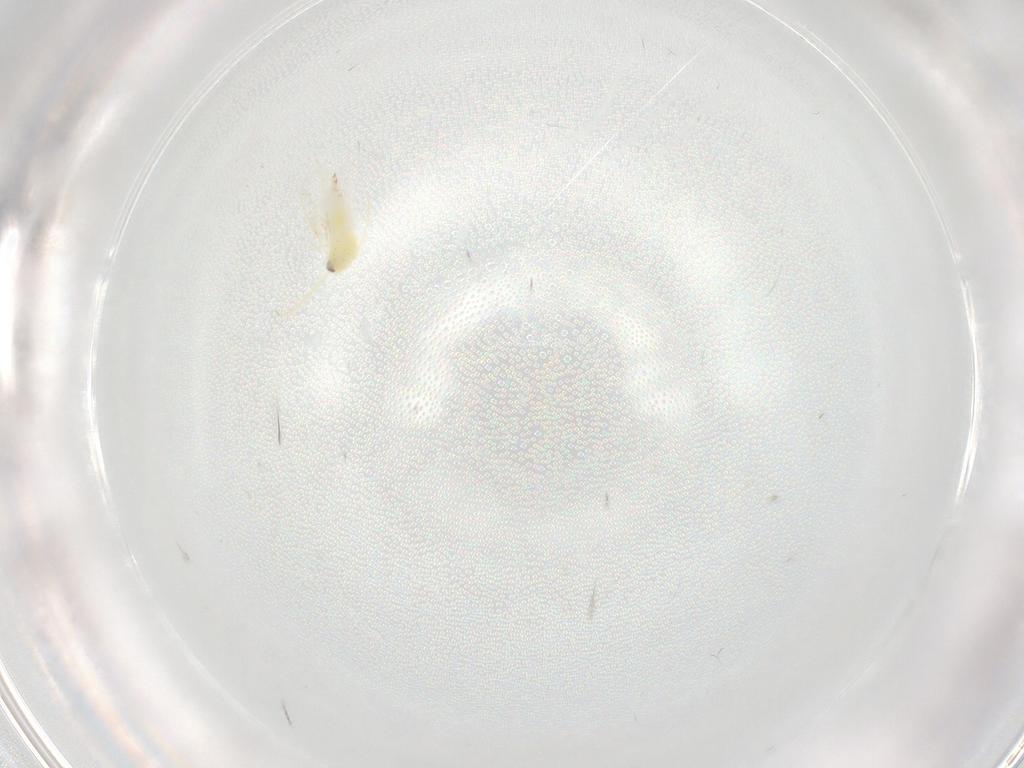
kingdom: Animalia
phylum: Arthropoda
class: Insecta
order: Hemiptera
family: Aleyrodidae
